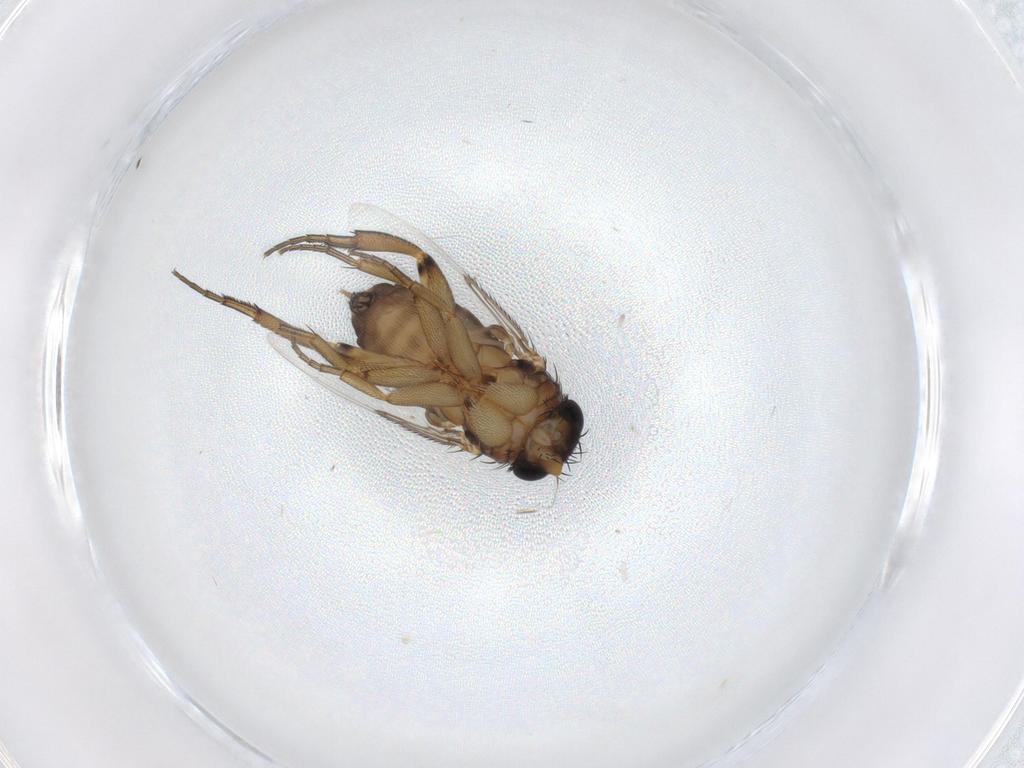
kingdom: Animalia
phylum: Arthropoda
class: Insecta
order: Diptera
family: Phoridae
